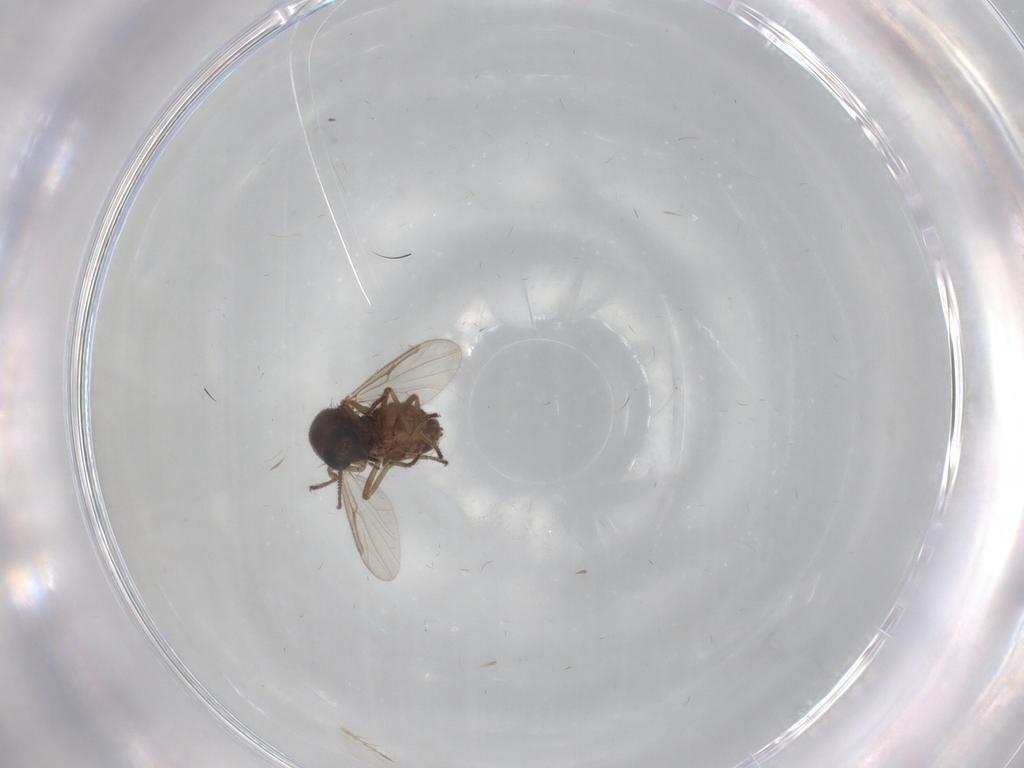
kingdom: Animalia
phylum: Arthropoda
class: Insecta
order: Diptera
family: Ceratopogonidae
